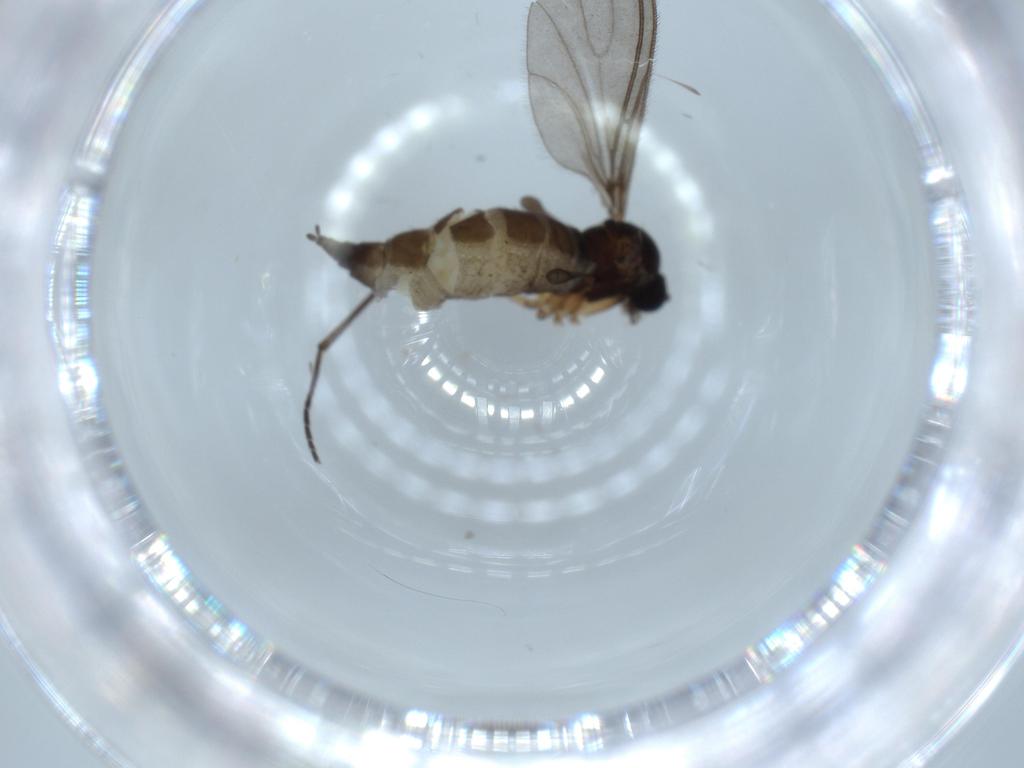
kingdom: Animalia
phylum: Arthropoda
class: Insecta
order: Diptera
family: Sciaridae
